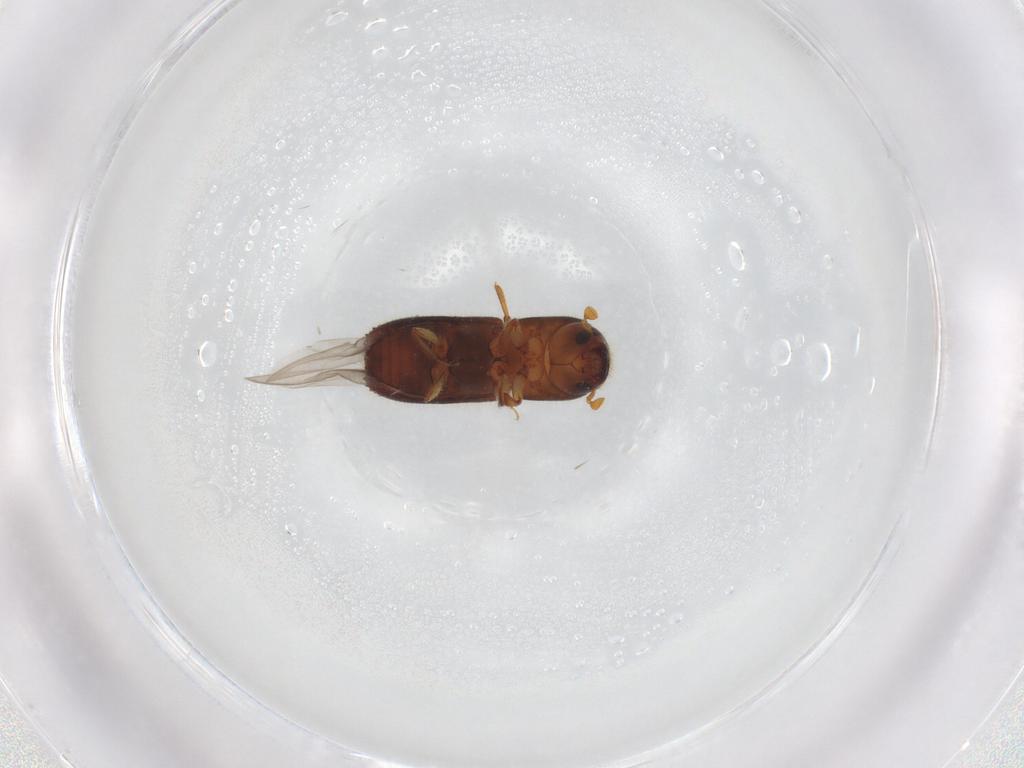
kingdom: Animalia
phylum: Arthropoda
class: Insecta
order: Coleoptera
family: Curculionidae
